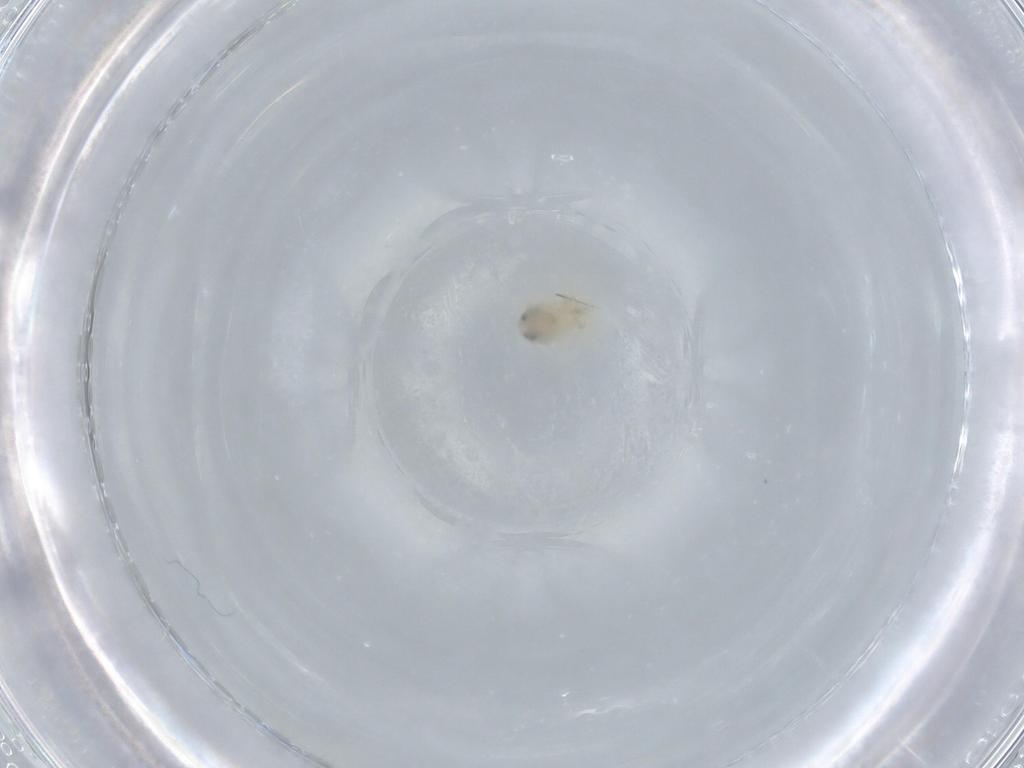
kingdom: Animalia
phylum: Arthropoda
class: Arachnida
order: Trombidiformes
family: Anystidae
